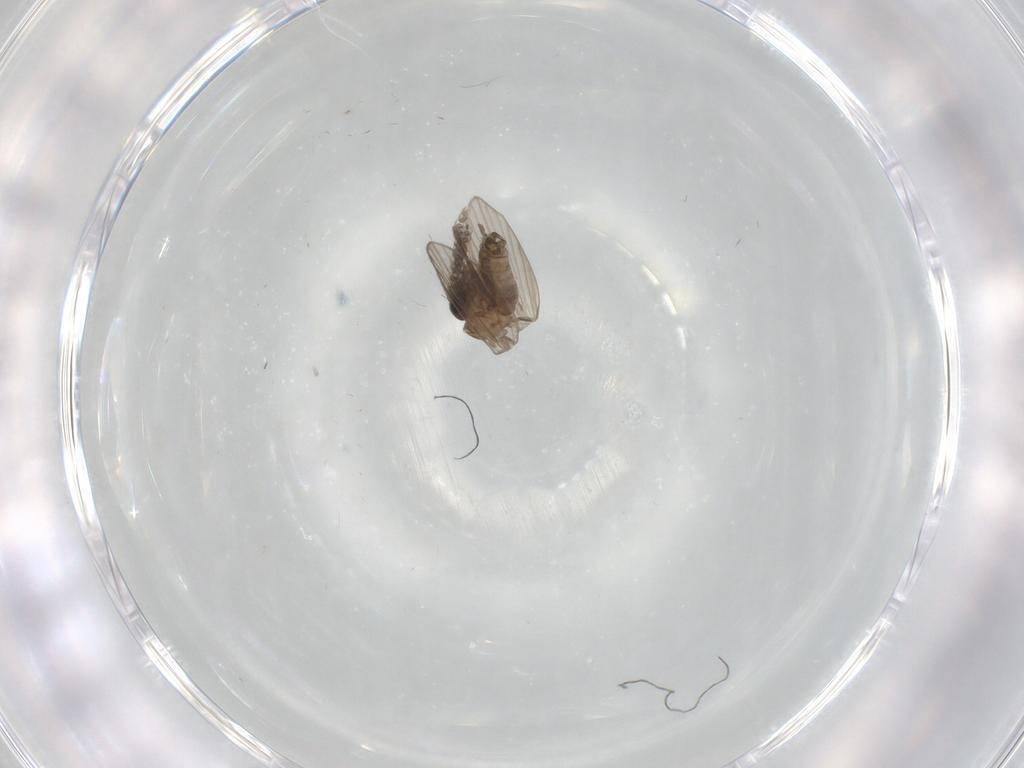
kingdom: Animalia
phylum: Arthropoda
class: Insecta
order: Diptera
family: Psychodidae
